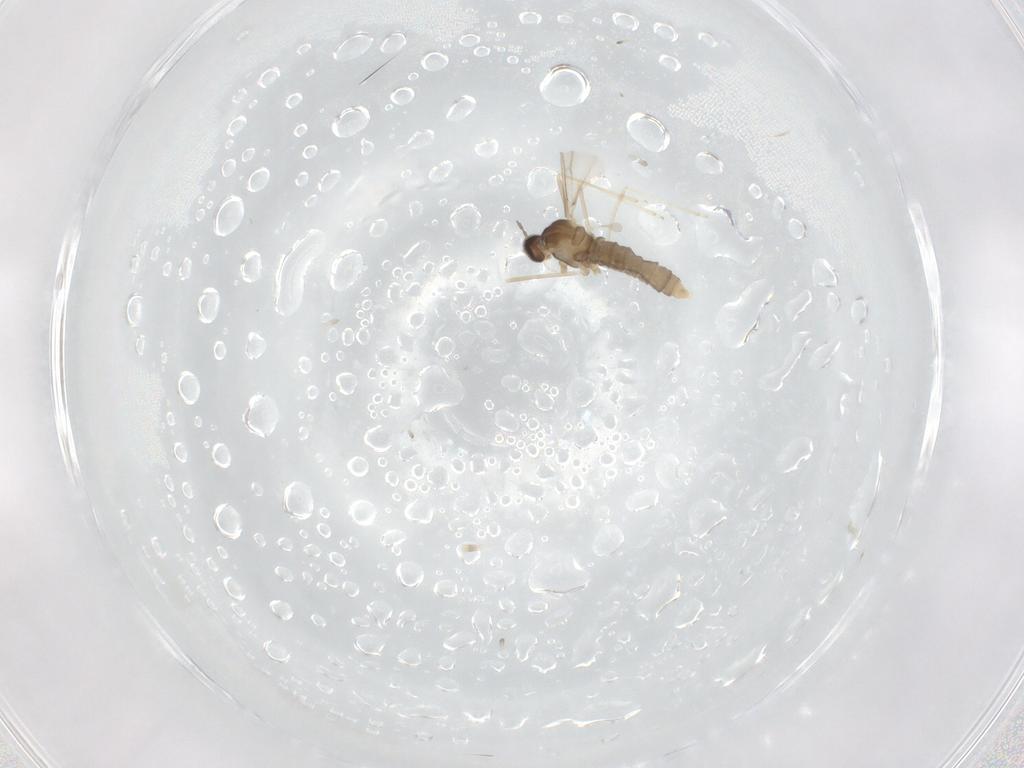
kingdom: Animalia
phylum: Arthropoda
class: Insecta
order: Diptera
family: Cecidomyiidae
